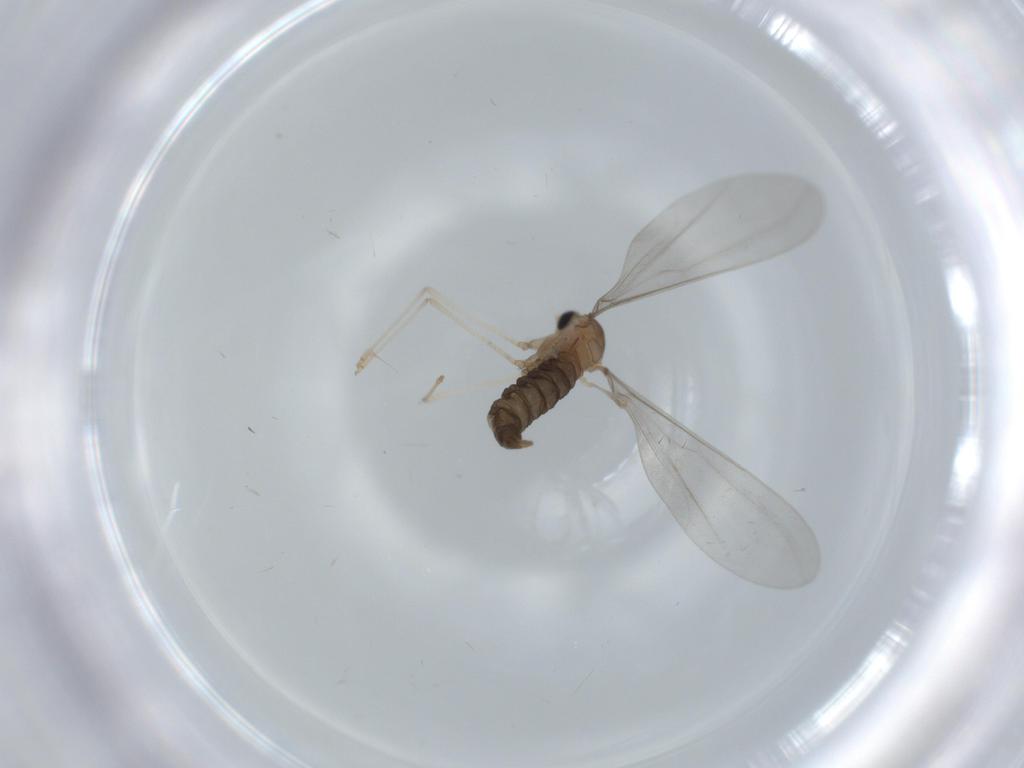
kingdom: Animalia
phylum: Arthropoda
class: Insecta
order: Diptera
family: Cecidomyiidae
